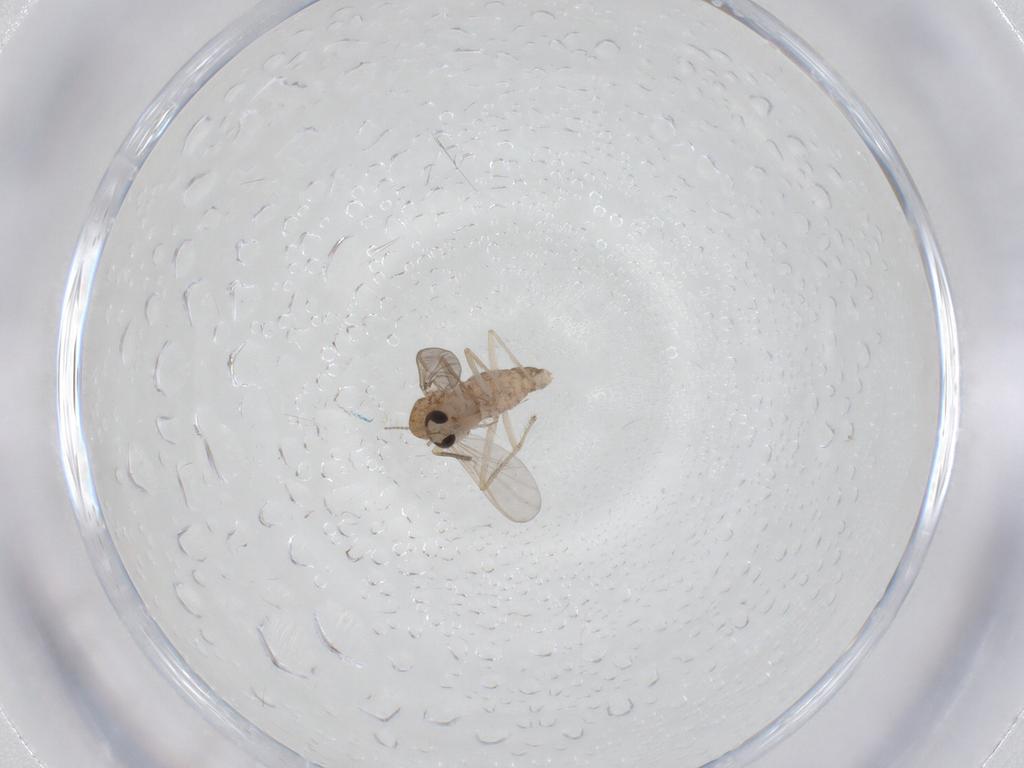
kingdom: Animalia
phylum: Arthropoda
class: Insecta
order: Diptera
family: Chironomidae
